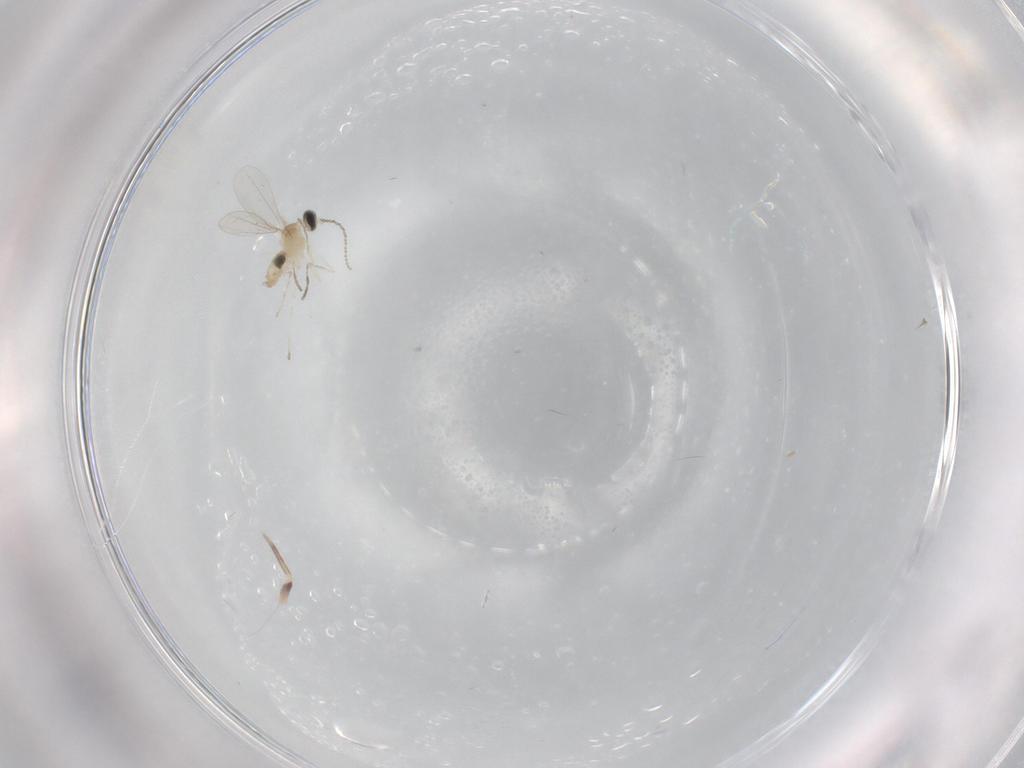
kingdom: Animalia
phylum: Arthropoda
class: Insecta
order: Diptera
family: Cecidomyiidae
